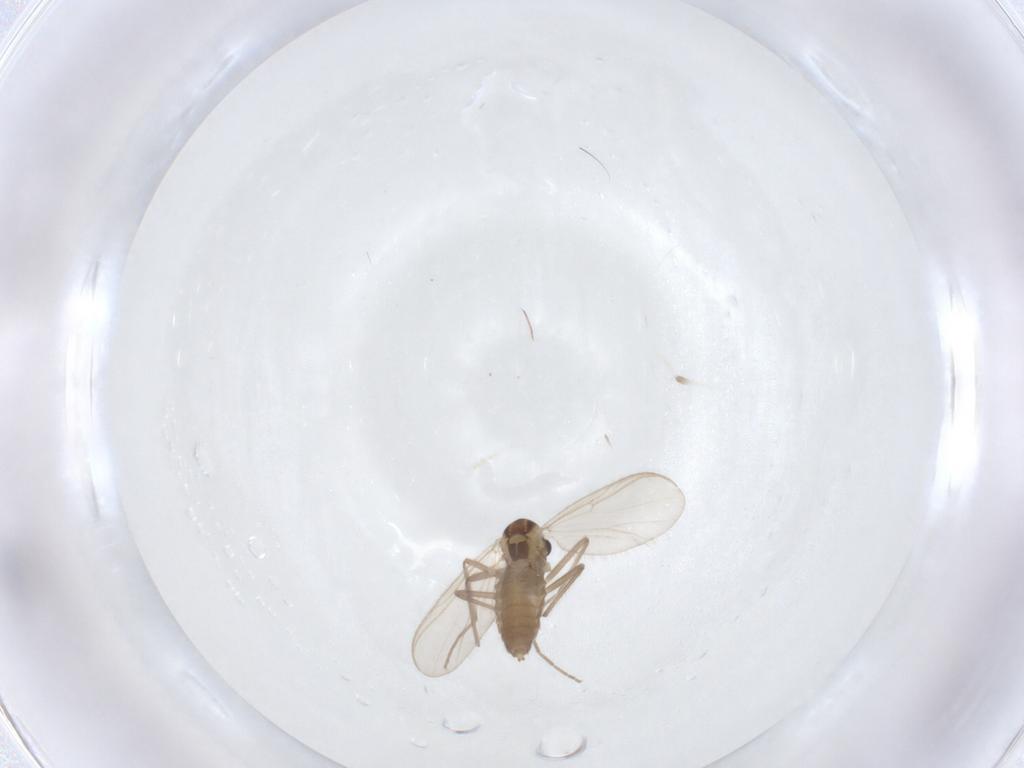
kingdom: Animalia
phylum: Arthropoda
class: Insecta
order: Diptera
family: Chironomidae
